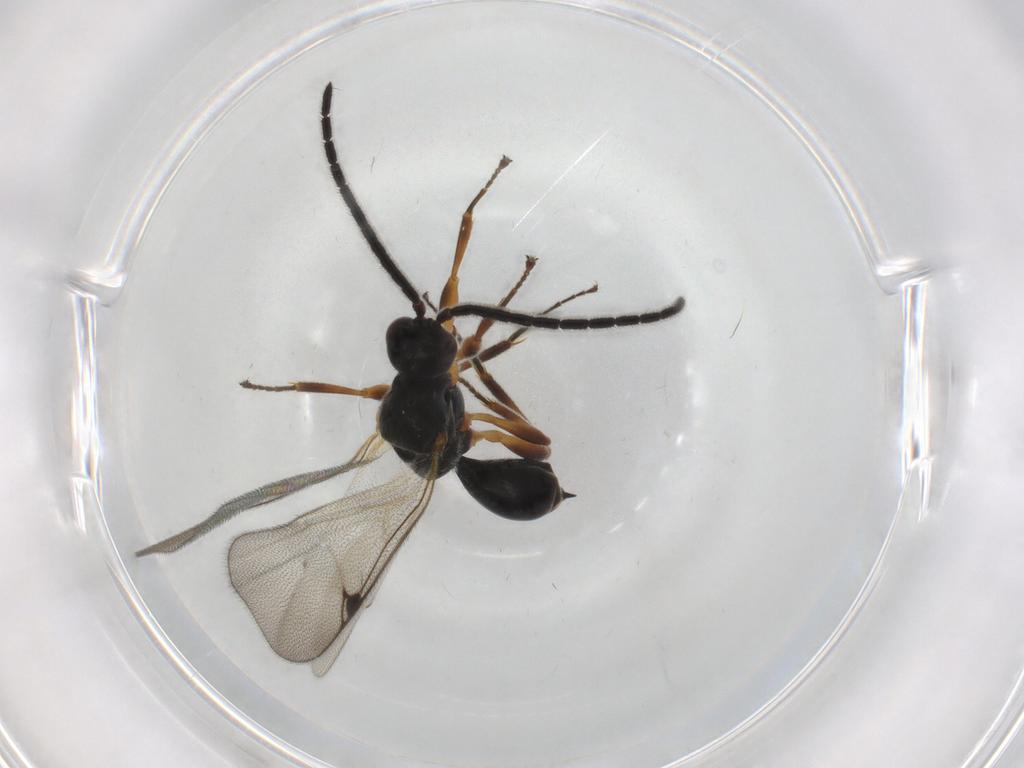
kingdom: Animalia
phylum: Arthropoda
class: Insecta
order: Hymenoptera
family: Proctotrupidae
